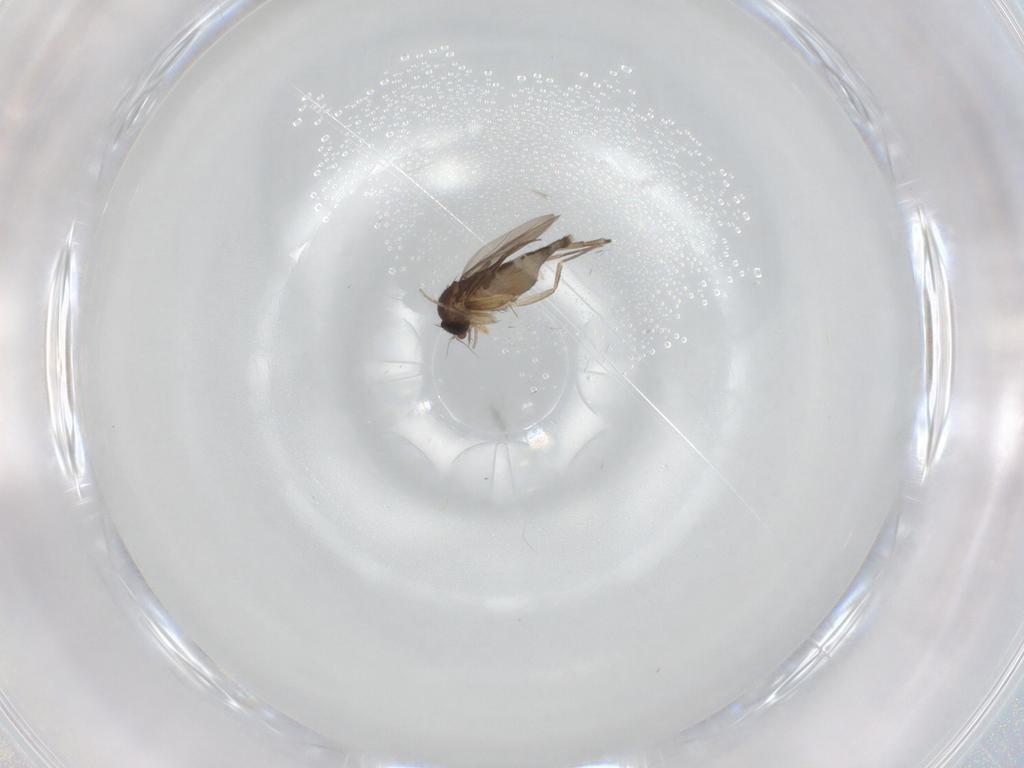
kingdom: Animalia
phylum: Arthropoda
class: Insecta
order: Diptera
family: Phoridae
